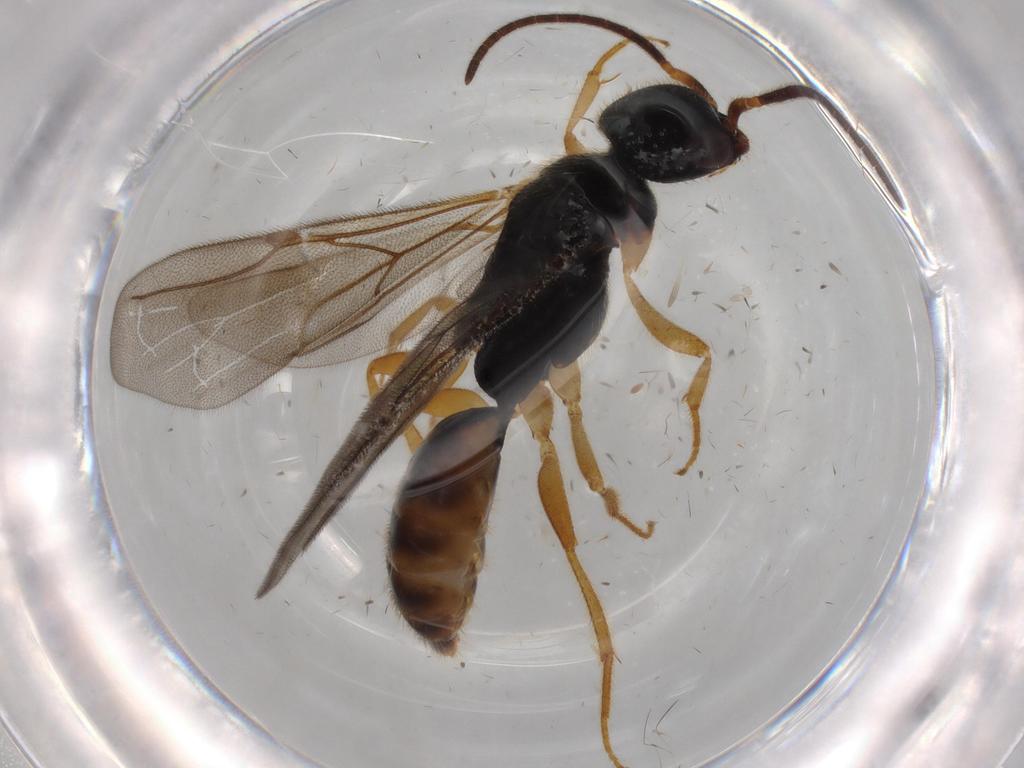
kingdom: Animalia
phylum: Arthropoda
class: Insecta
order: Hymenoptera
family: Bethylidae
